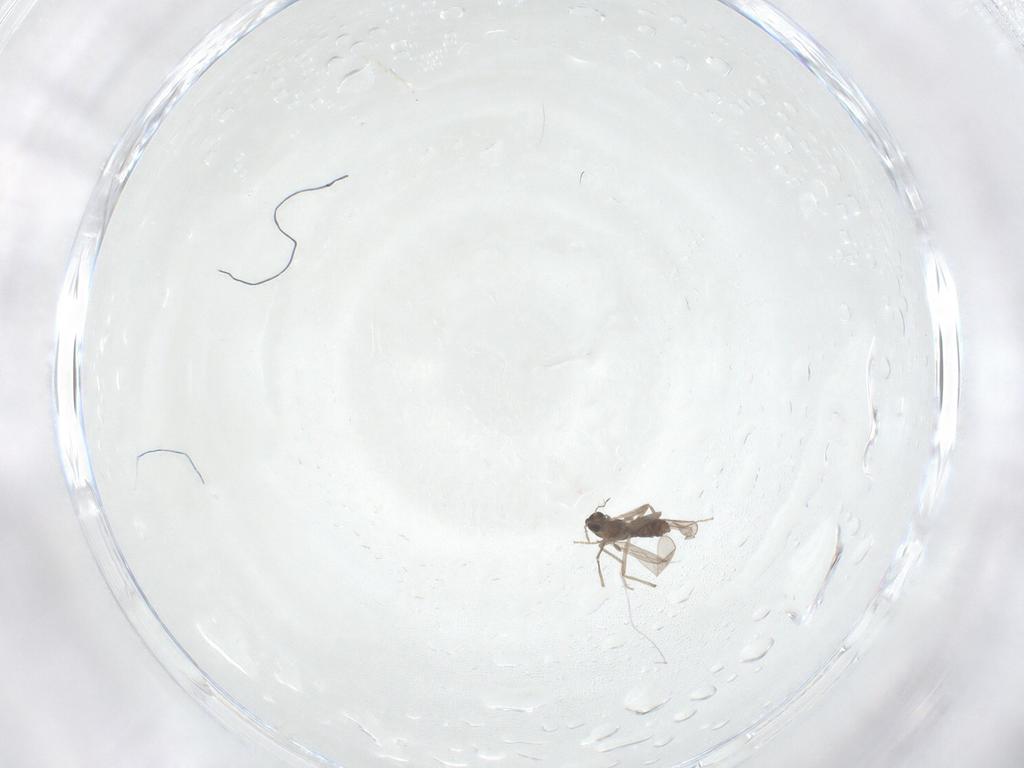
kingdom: Animalia
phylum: Arthropoda
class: Insecta
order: Diptera
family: Chironomidae
